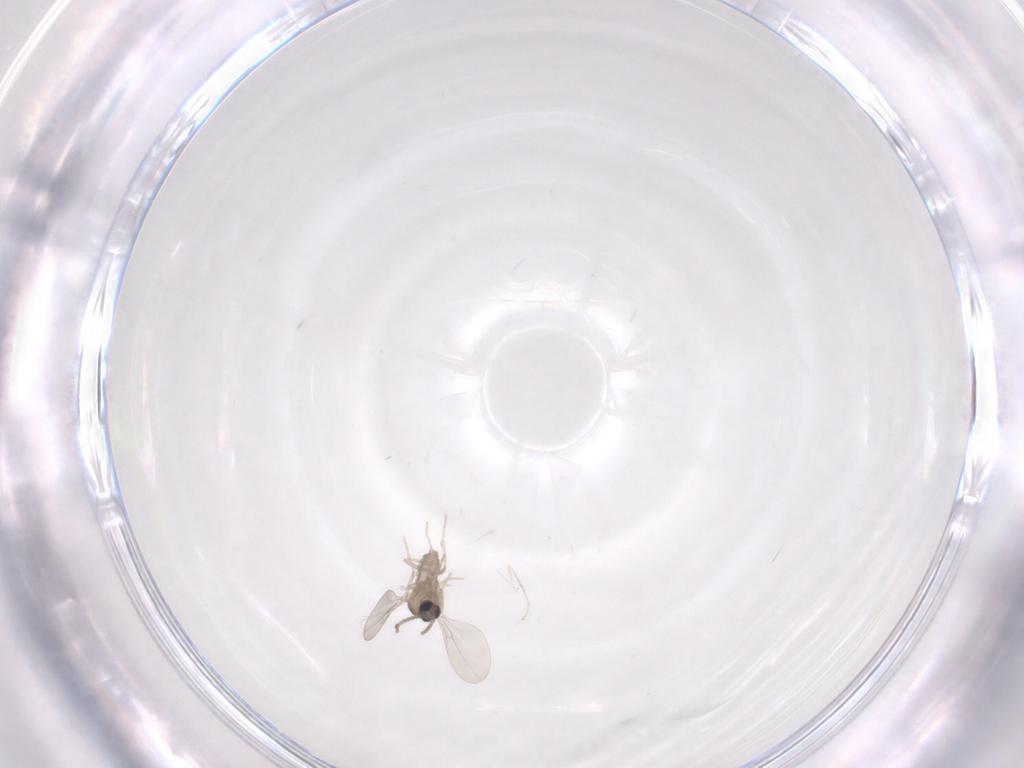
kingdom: Animalia
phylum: Arthropoda
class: Insecta
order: Diptera
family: Cecidomyiidae
